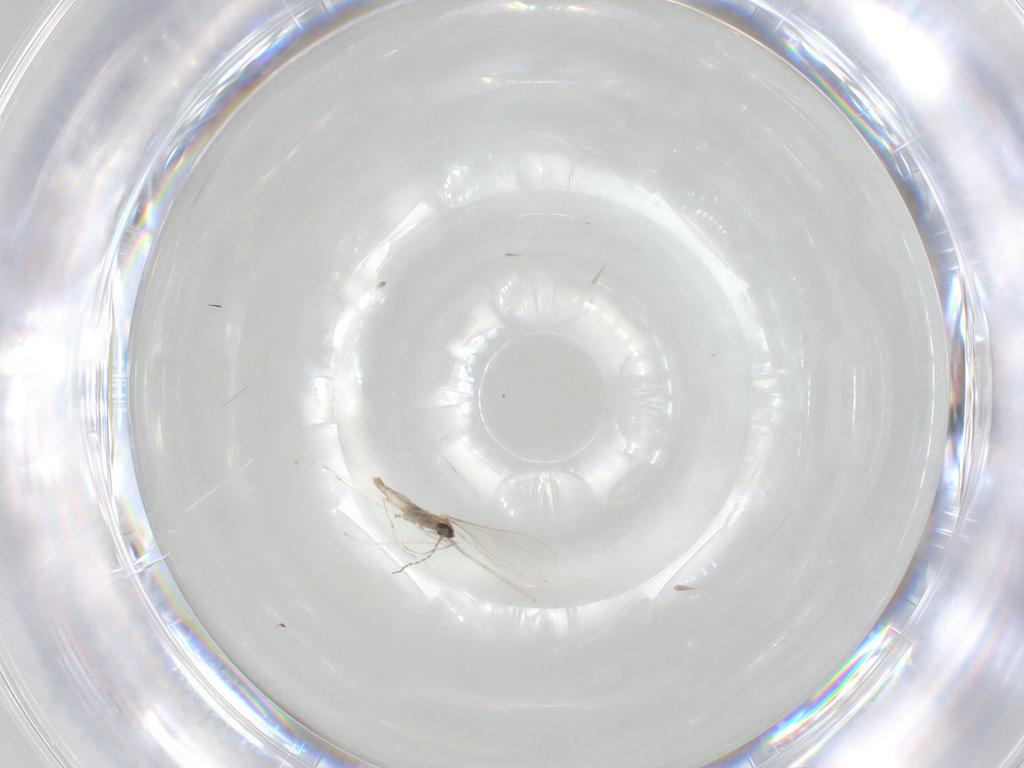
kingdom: Animalia
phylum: Arthropoda
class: Insecta
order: Diptera
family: Cecidomyiidae
